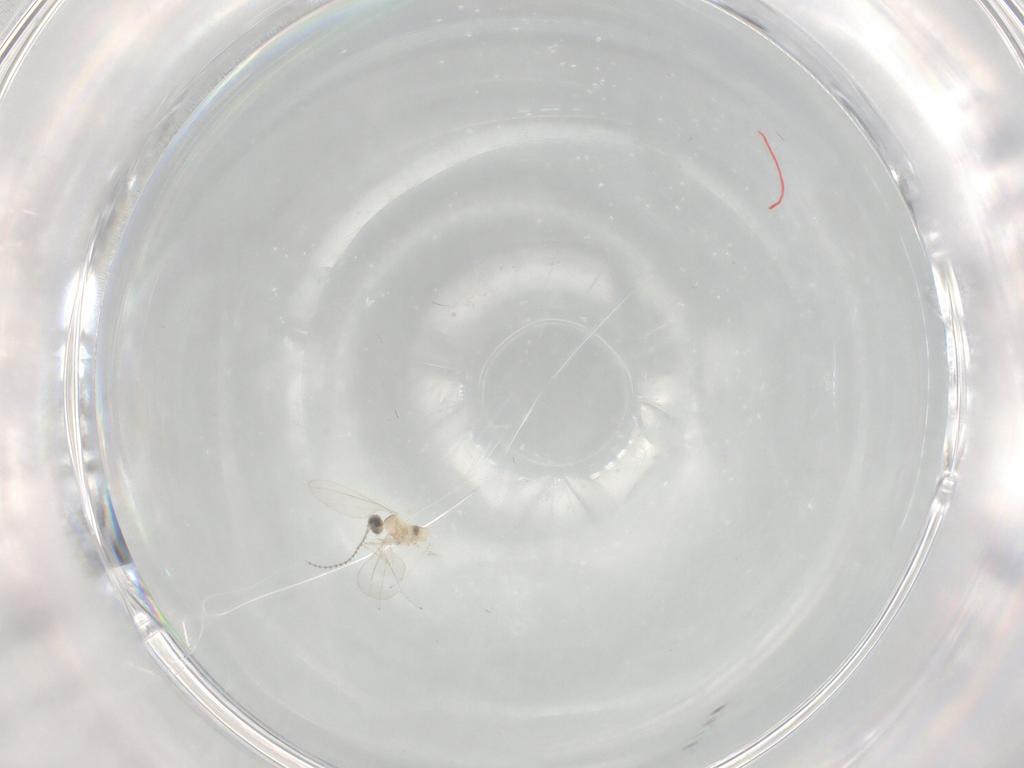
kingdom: Animalia
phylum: Arthropoda
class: Insecta
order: Diptera
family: Cecidomyiidae
